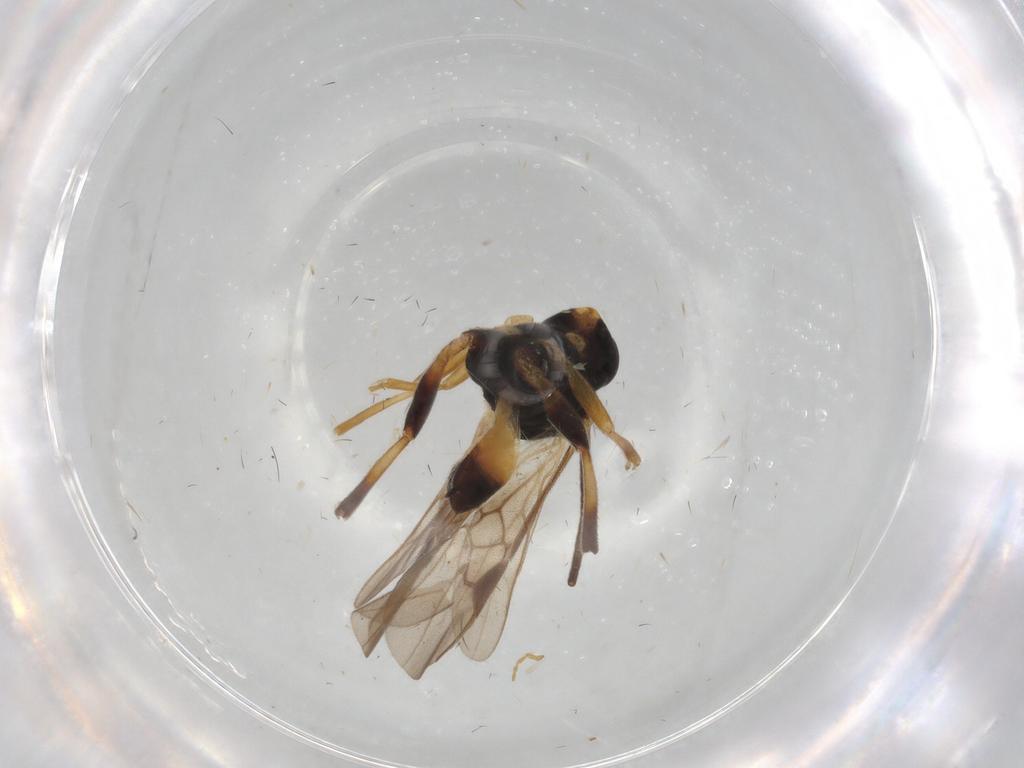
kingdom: Animalia
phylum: Arthropoda
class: Insecta
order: Hymenoptera
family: Braconidae
